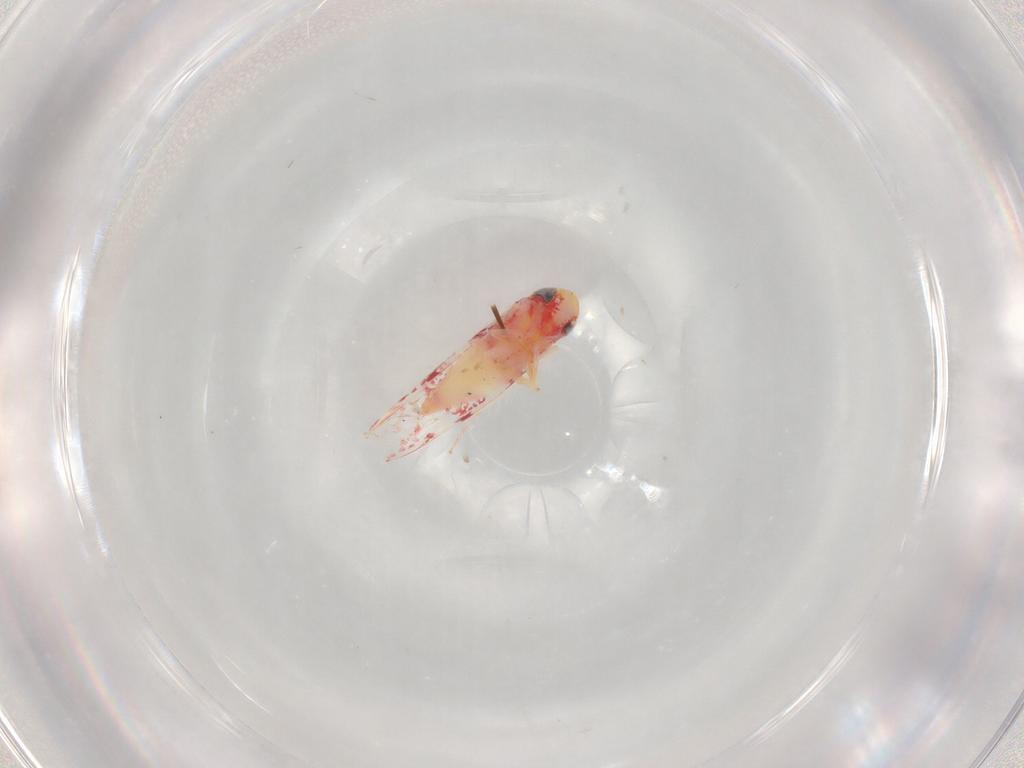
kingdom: Animalia
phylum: Arthropoda
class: Insecta
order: Hemiptera
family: Cicadellidae
